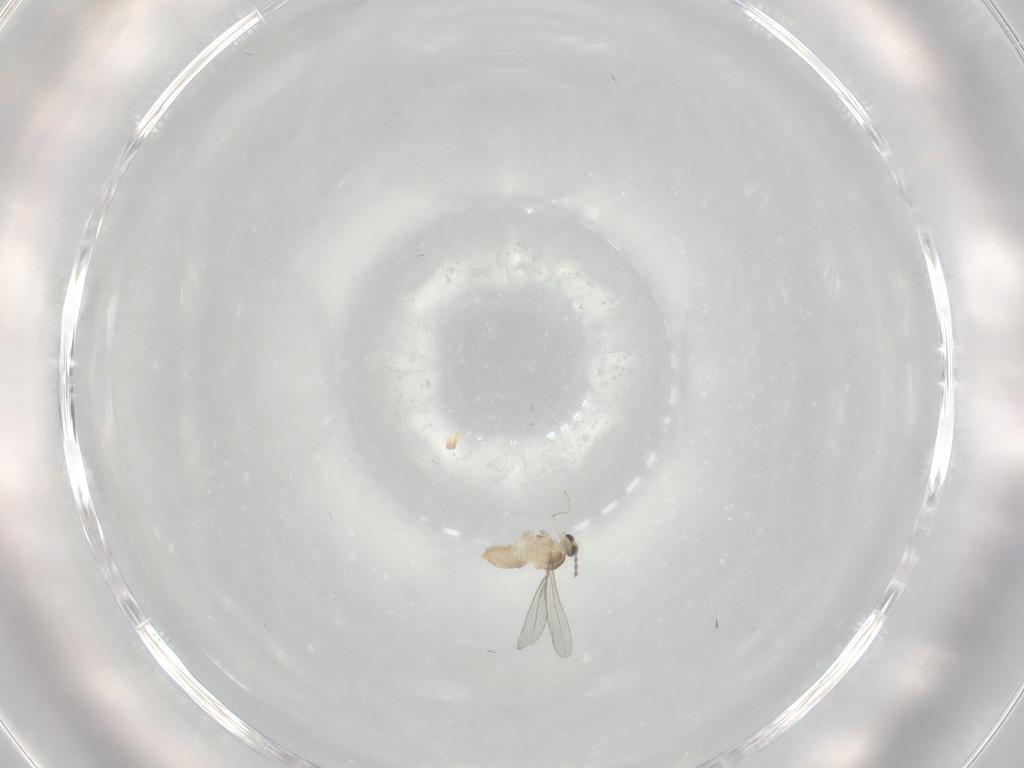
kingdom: Animalia
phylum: Arthropoda
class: Insecta
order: Diptera
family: Cecidomyiidae
